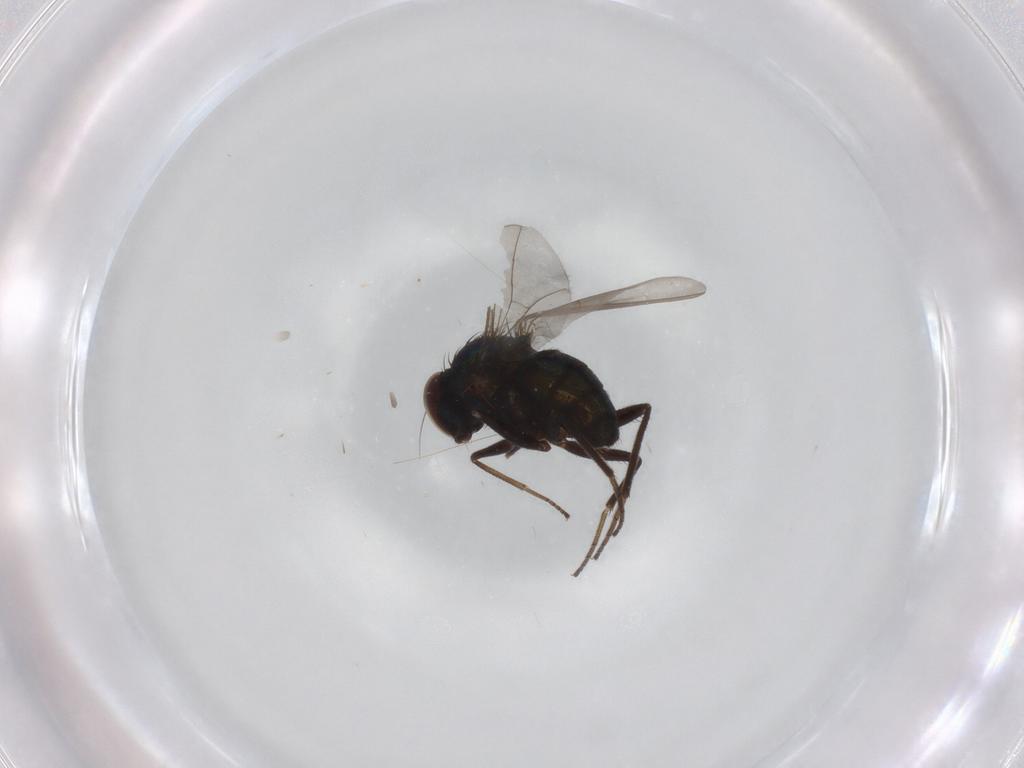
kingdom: Animalia
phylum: Arthropoda
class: Insecta
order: Diptera
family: Dolichopodidae
